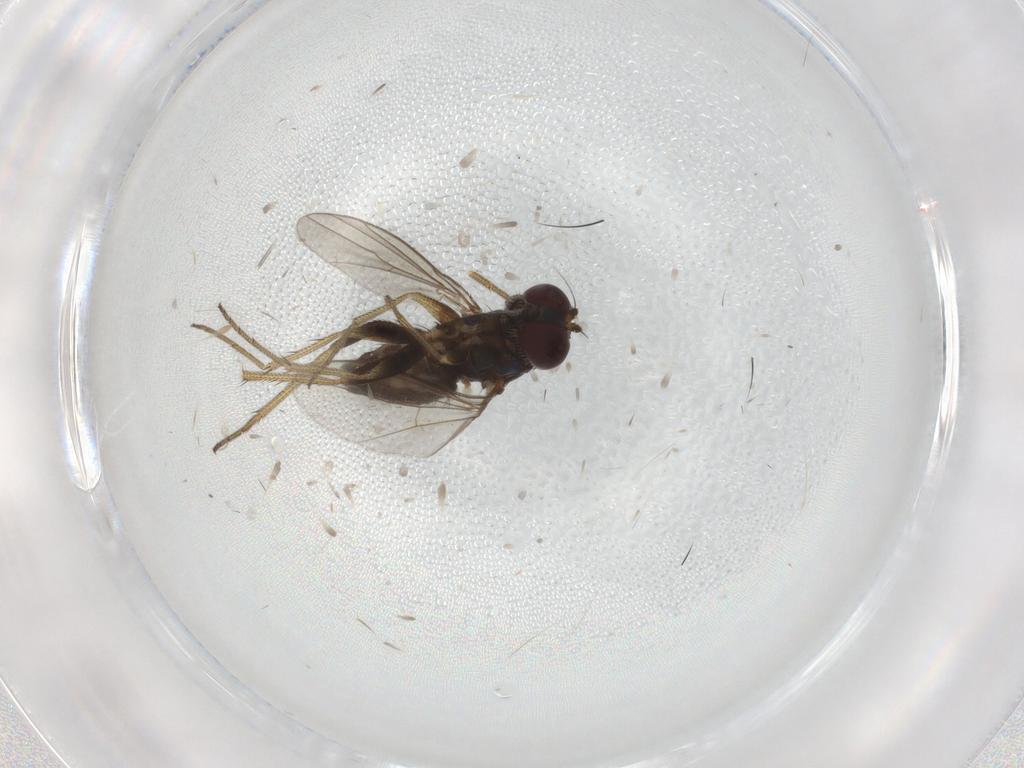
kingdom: Animalia
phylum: Arthropoda
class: Insecta
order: Diptera
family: Dolichopodidae
